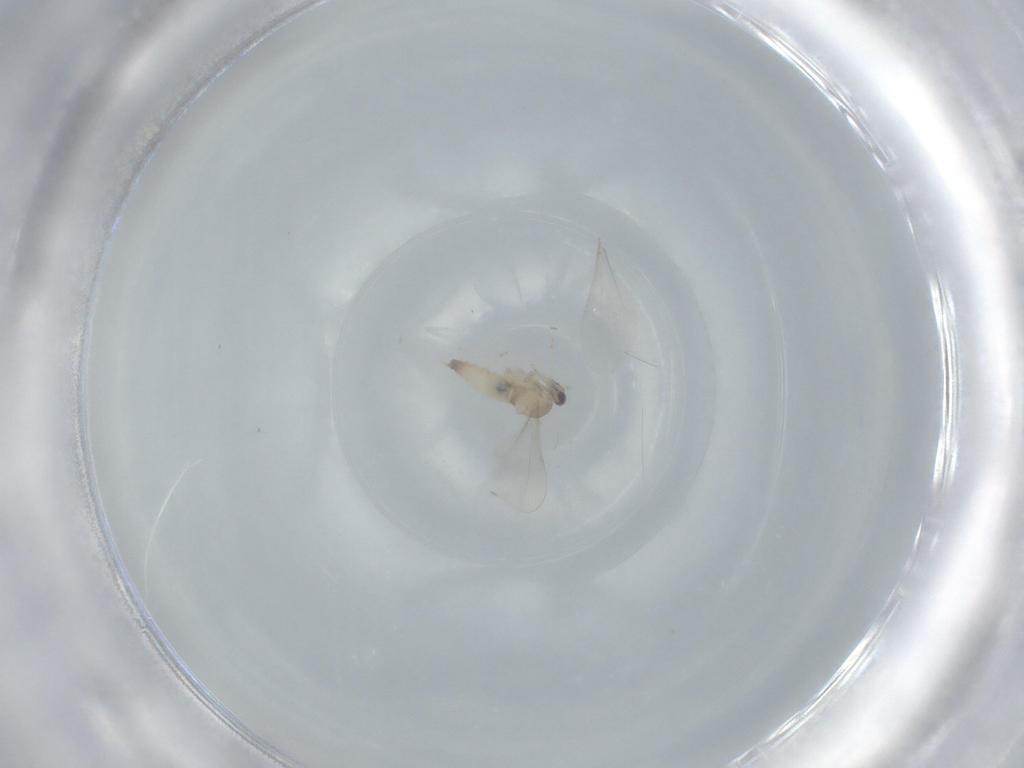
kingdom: Animalia
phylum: Arthropoda
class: Insecta
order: Diptera
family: Cecidomyiidae
